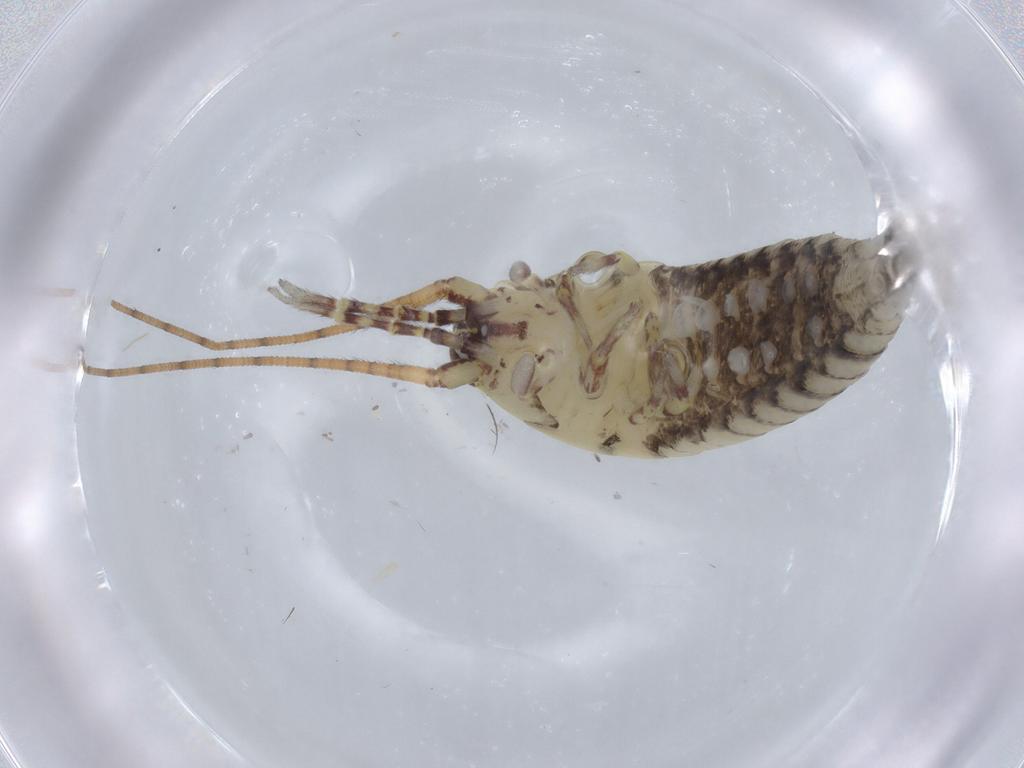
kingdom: Animalia
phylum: Arthropoda
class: Insecta
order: Archaeognatha
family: Machilidae
